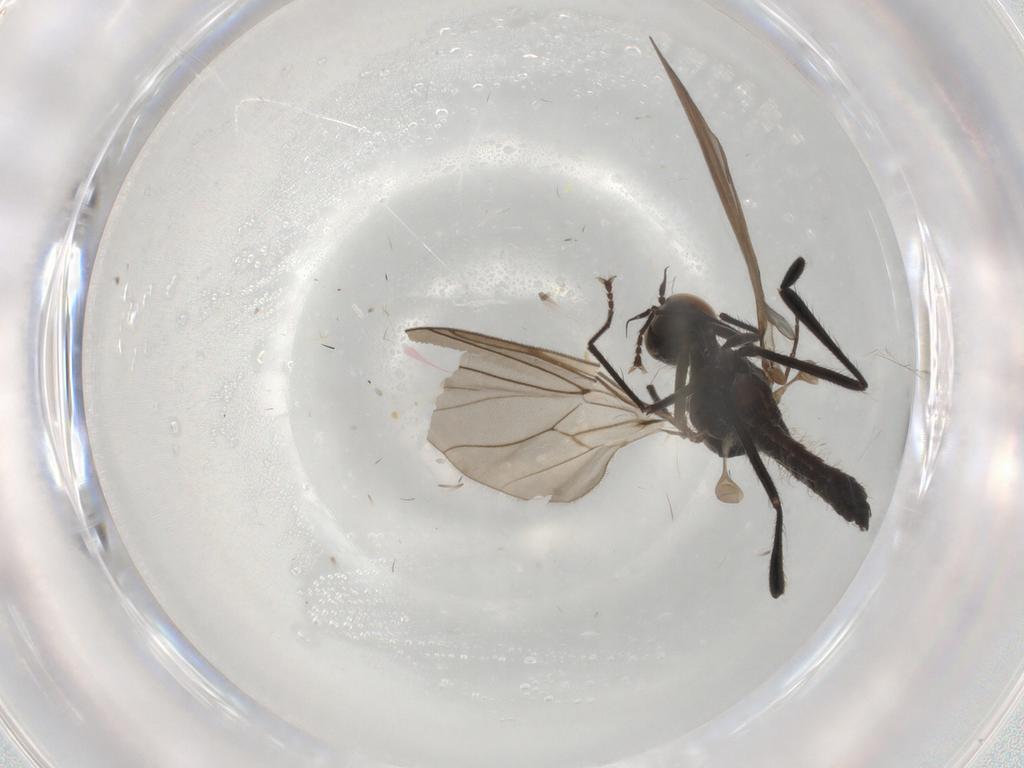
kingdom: Animalia
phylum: Arthropoda
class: Insecta
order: Diptera
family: Hybotidae
